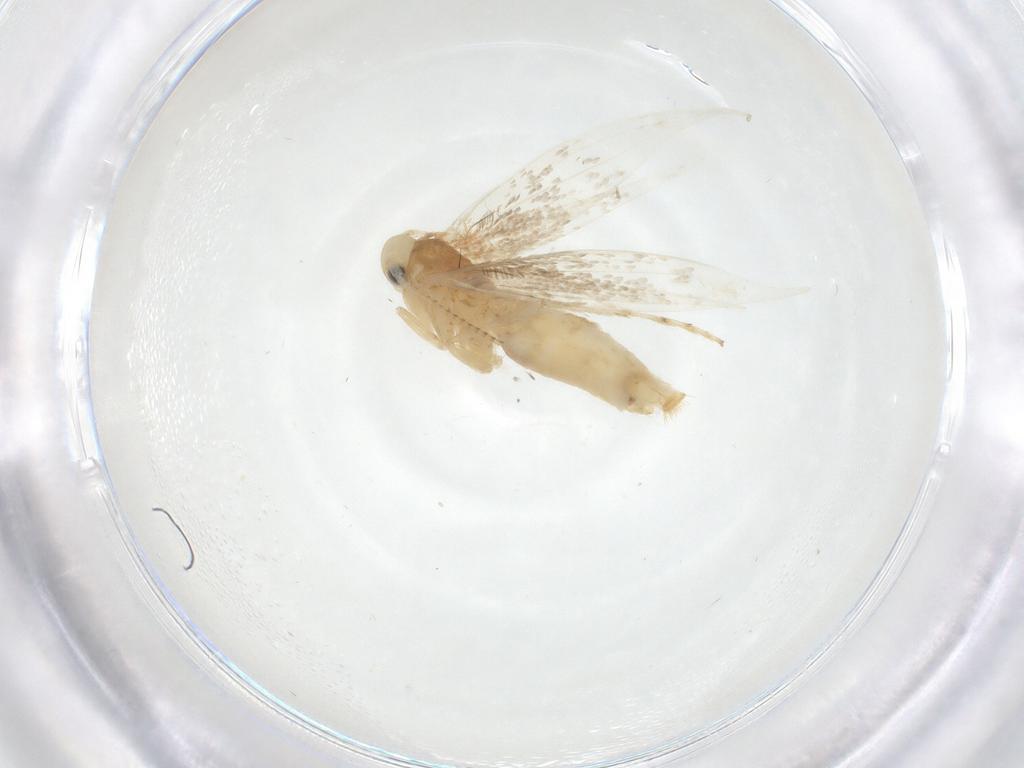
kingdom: Animalia
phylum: Arthropoda
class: Insecta
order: Lepidoptera
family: Gracillariidae
